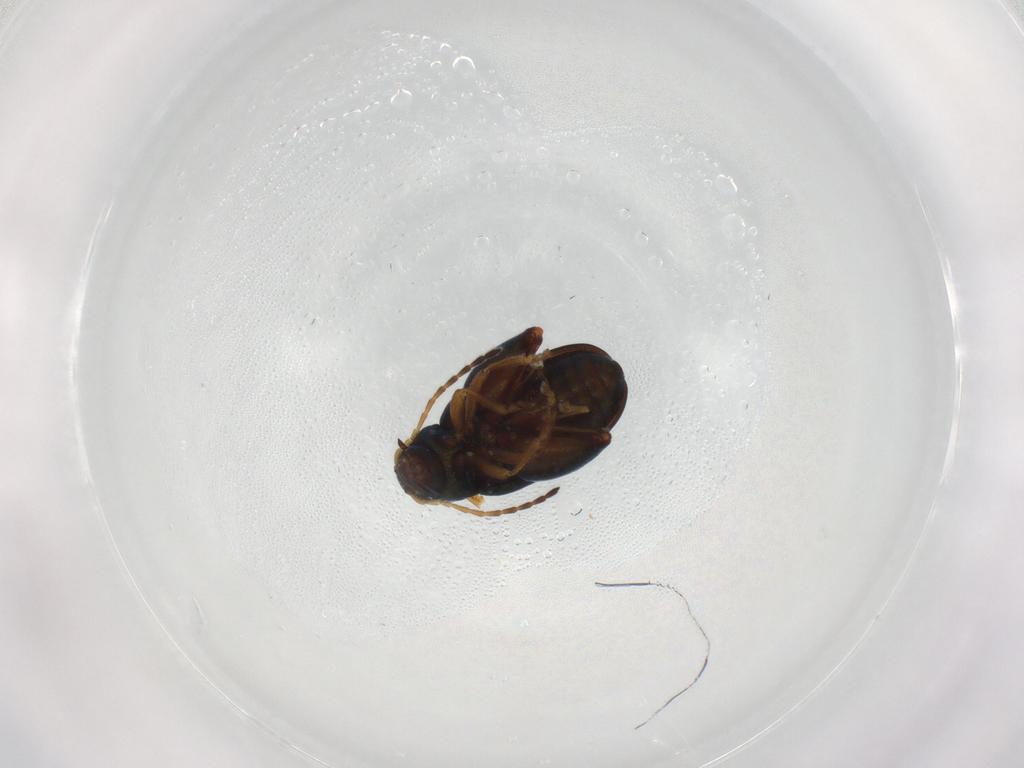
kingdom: Animalia
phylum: Arthropoda
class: Insecta
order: Coleoptera
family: Chrysomelidae
